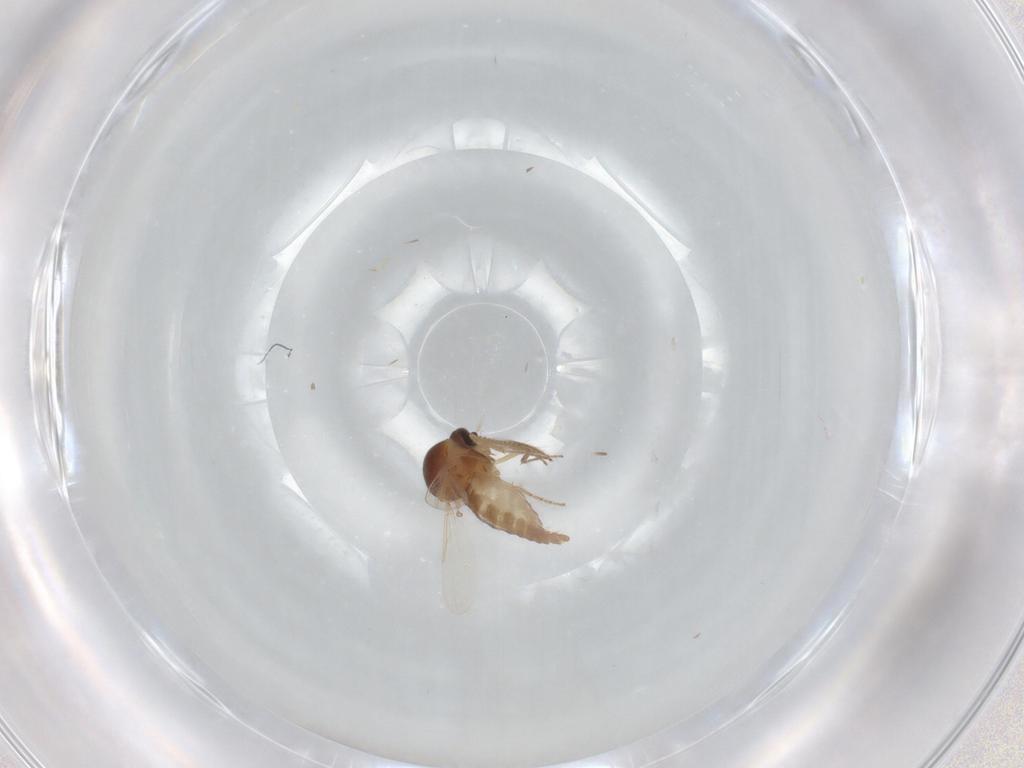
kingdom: Animalia
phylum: Arthropoda
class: Insecta
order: Diptera
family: Ceratopogonidae
